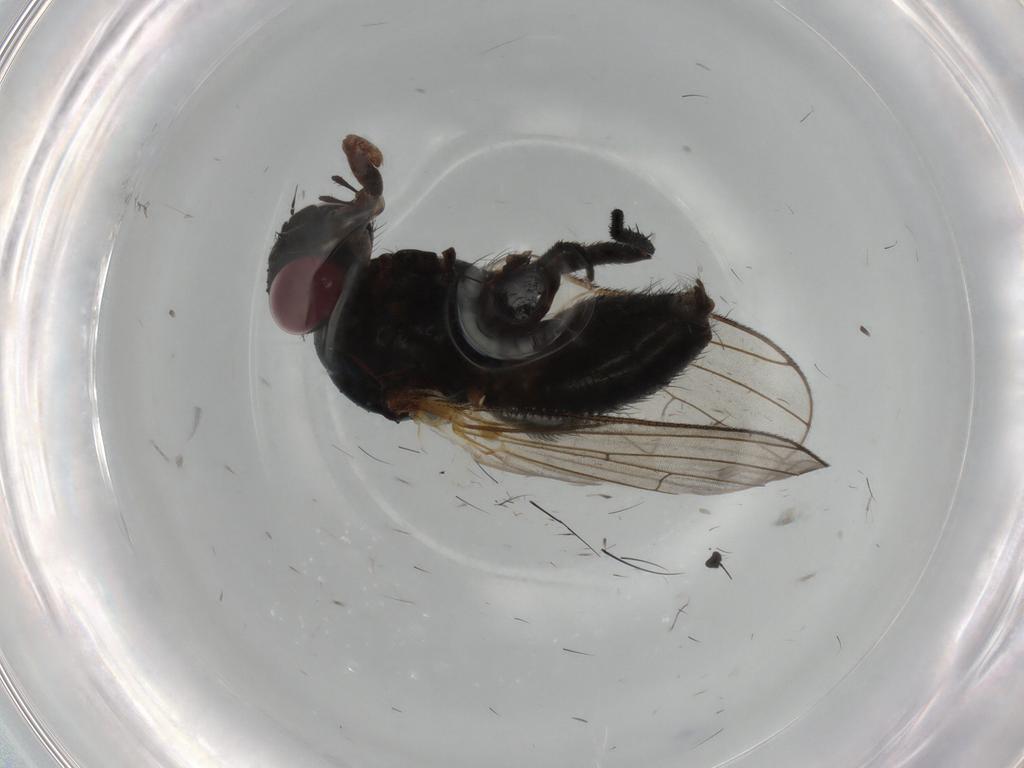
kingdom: Animalia
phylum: Arthropoda
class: Insecta
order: Diptera
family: Fannia
